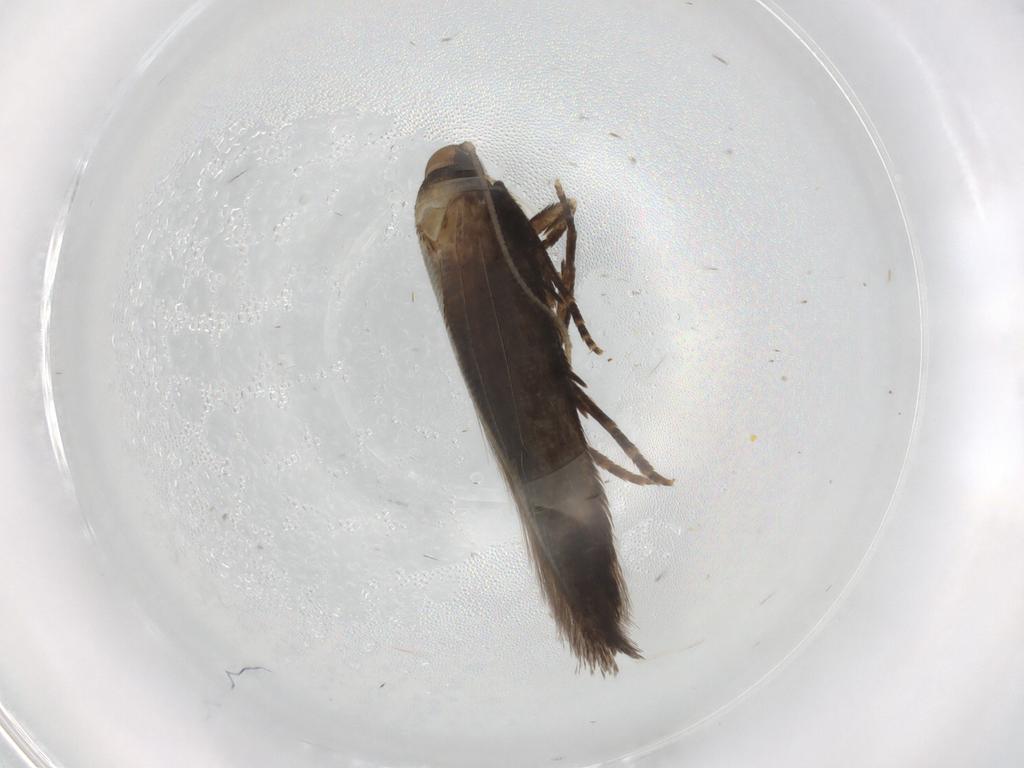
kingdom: Animalia
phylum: Arthropoda
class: Insecta
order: Lepidoptera
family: Cosmopterigidae
